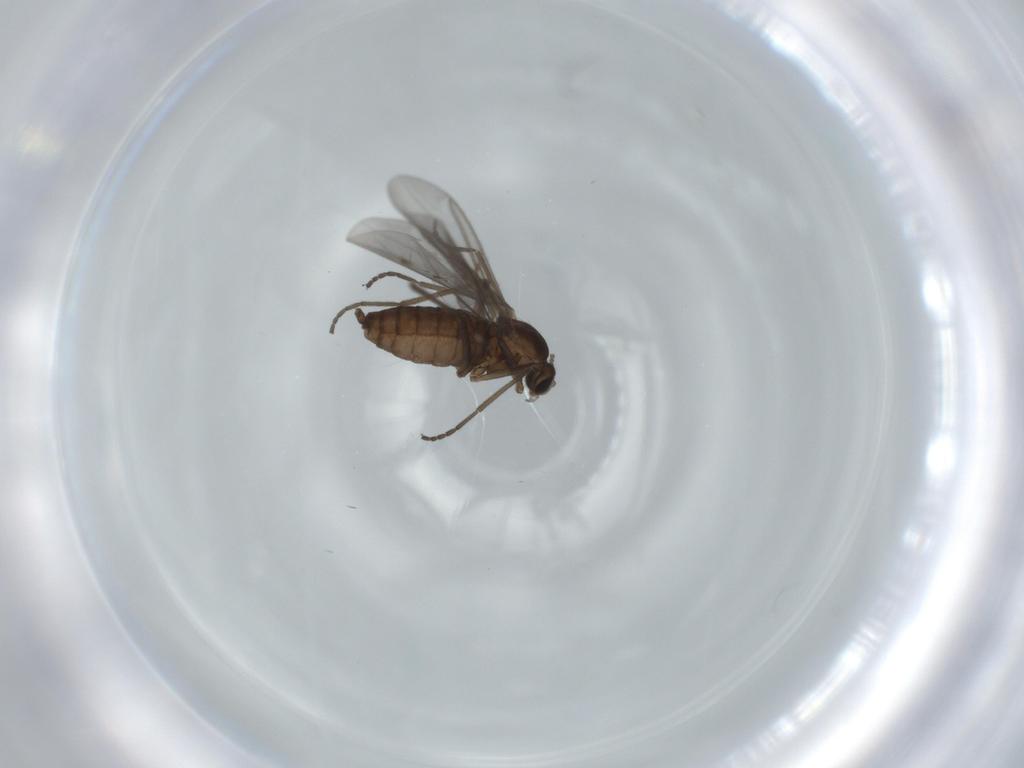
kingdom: Animalia
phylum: Arthropoda
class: Insecta
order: Diptera
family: Cecidomyiidae
